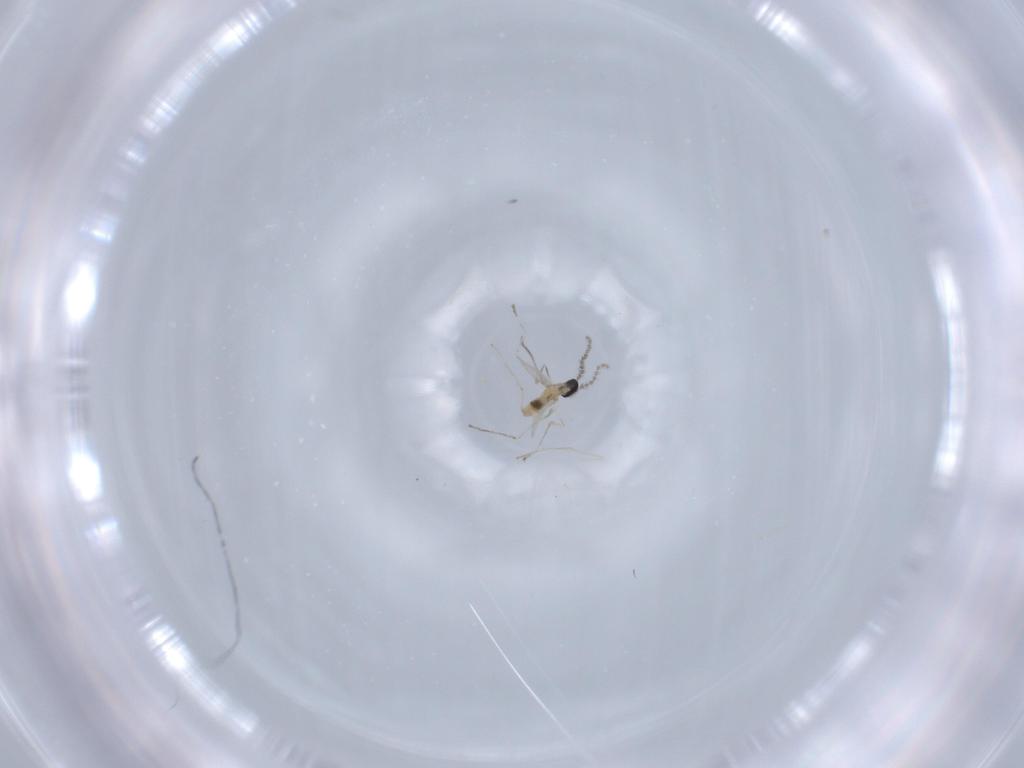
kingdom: Animalia
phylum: Arthropoda
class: Insecta
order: Diptera
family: Cecidomyiidae
